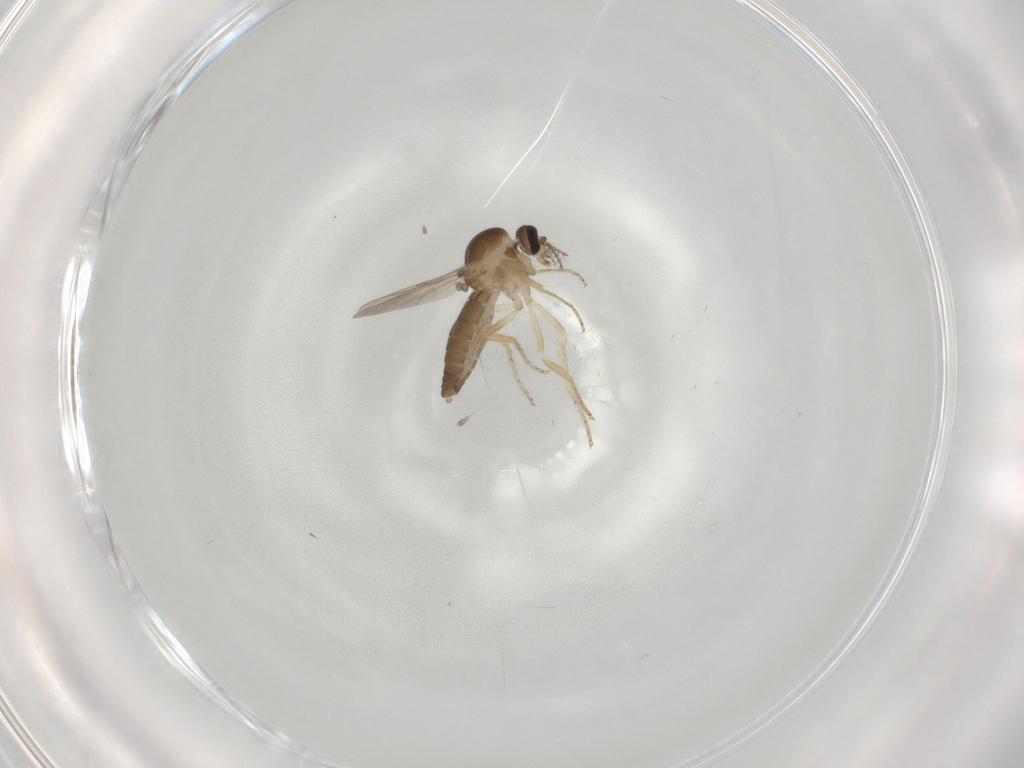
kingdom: Animalia
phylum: Arthropoda
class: Insecta
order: Diptera
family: Ceratopogonidae
